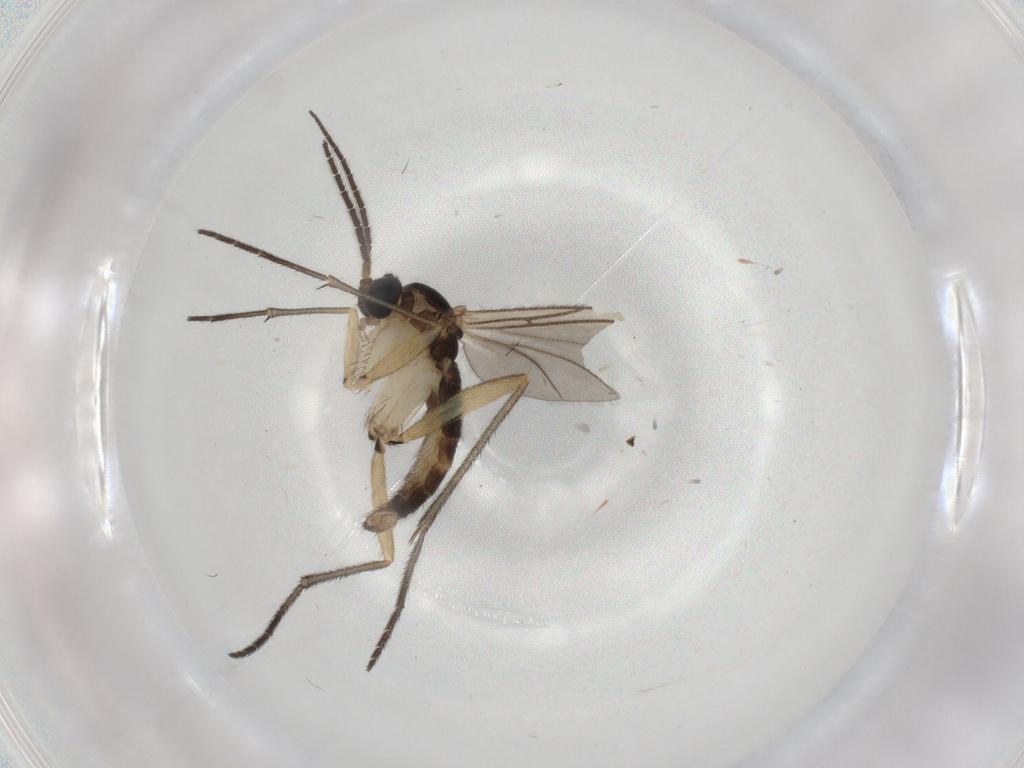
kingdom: Animalia
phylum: Arthropoda
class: Insecta
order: Diptera
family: Sciaridae
